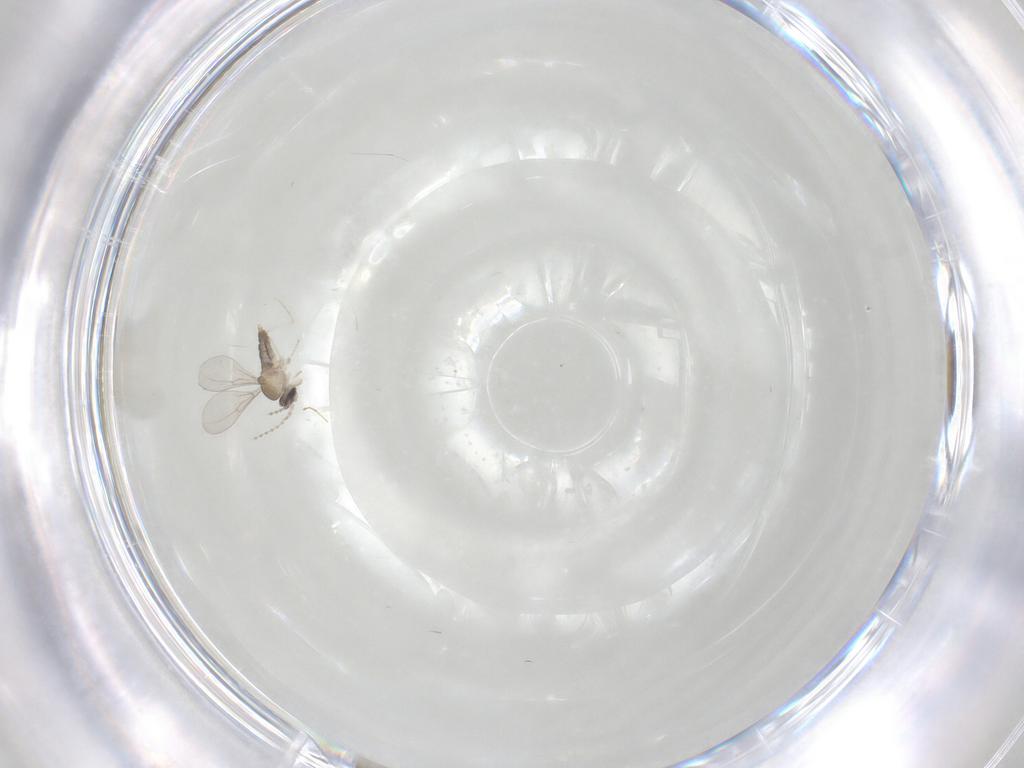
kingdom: Animalia
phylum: Arthropoda
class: Insecta
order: Diptera
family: Cecidomyiidae
